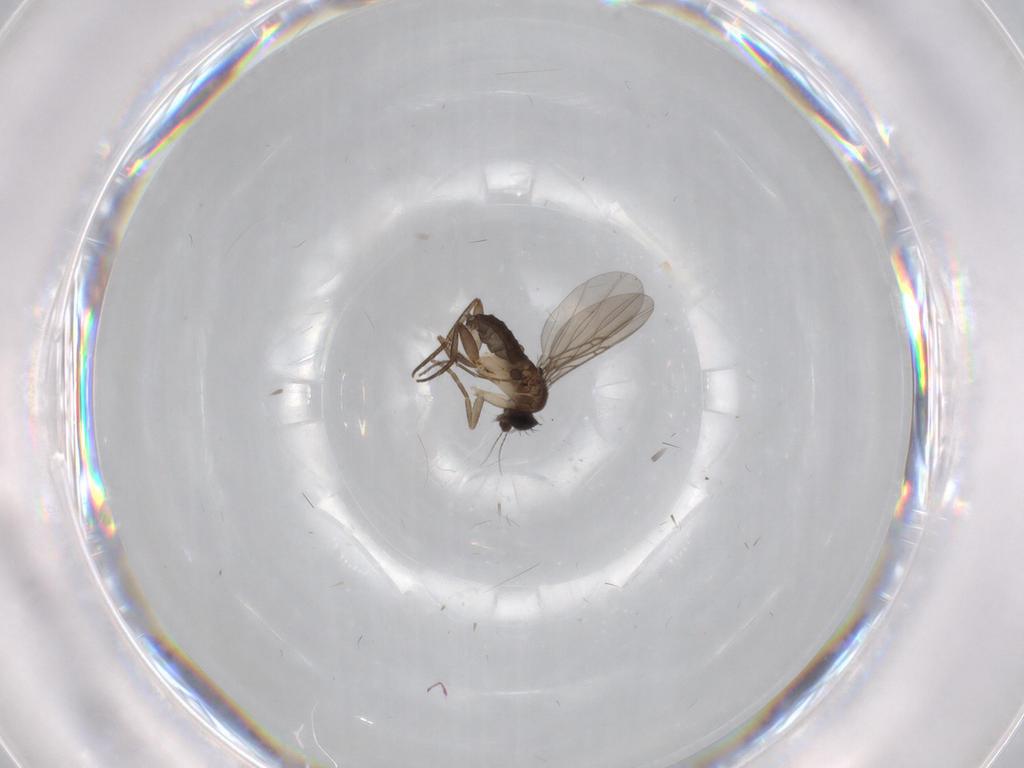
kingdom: Animalia
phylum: Arthropoda
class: Insecta
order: Diptera
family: Phoridae
